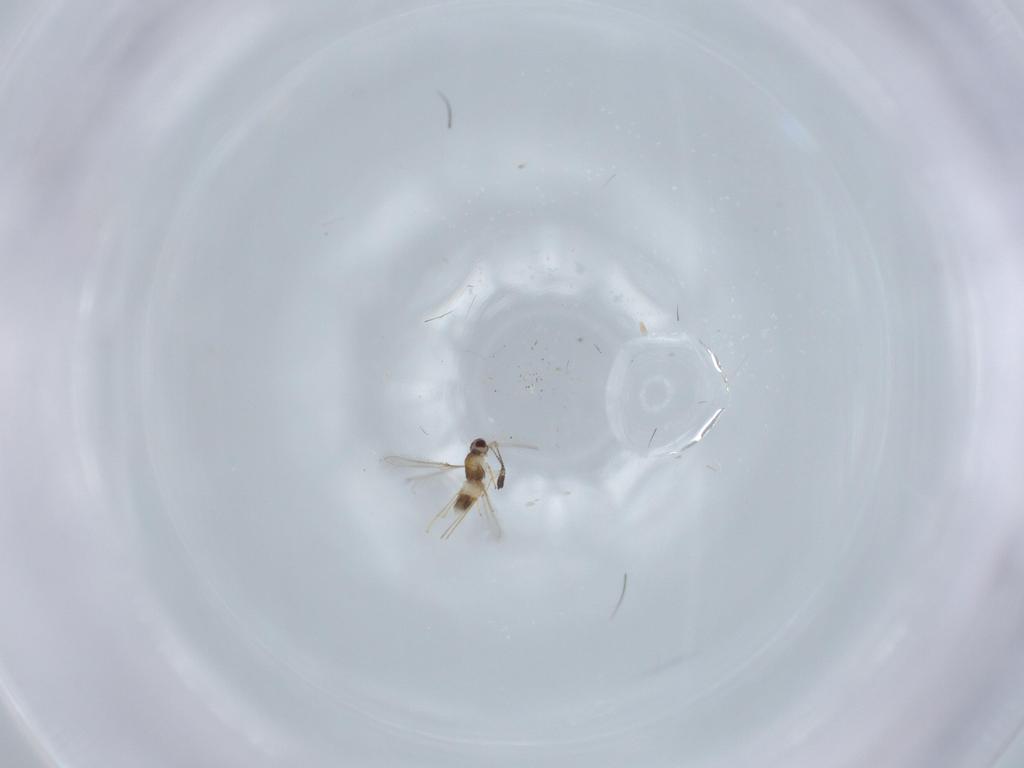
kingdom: Animalia
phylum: Arthropoda
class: Insecta
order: Hymenoptera
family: Mymaridae
